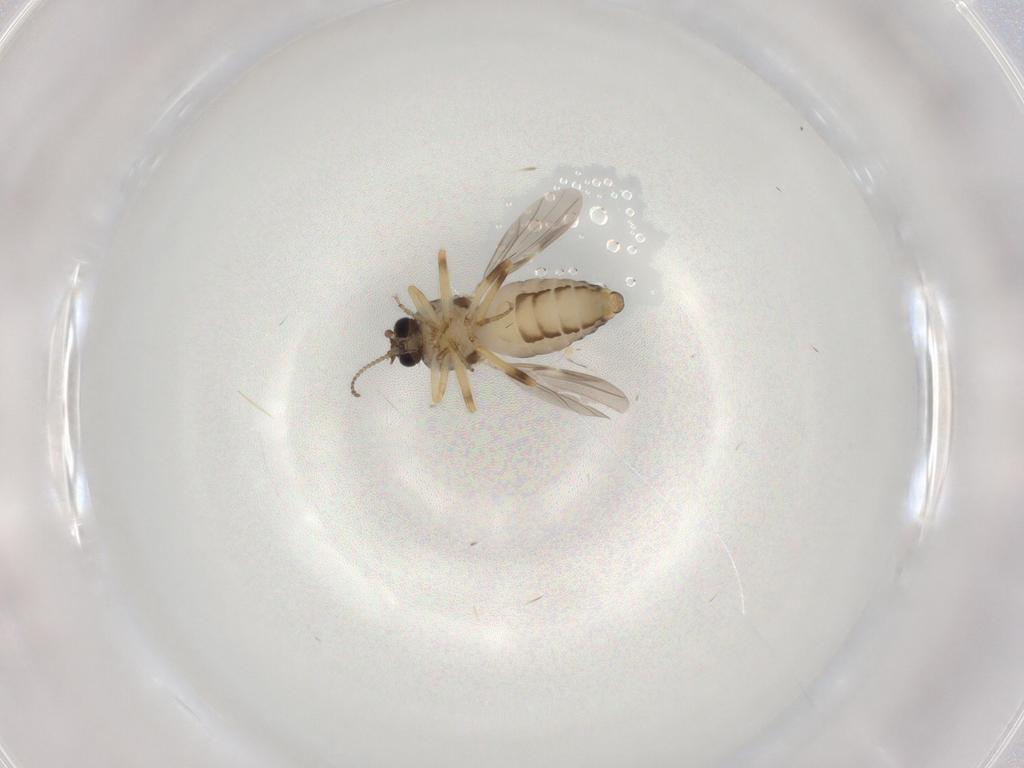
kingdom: Animalia
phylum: Arthropoda
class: Insecta
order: Diptera
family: Ceratopogonidae
